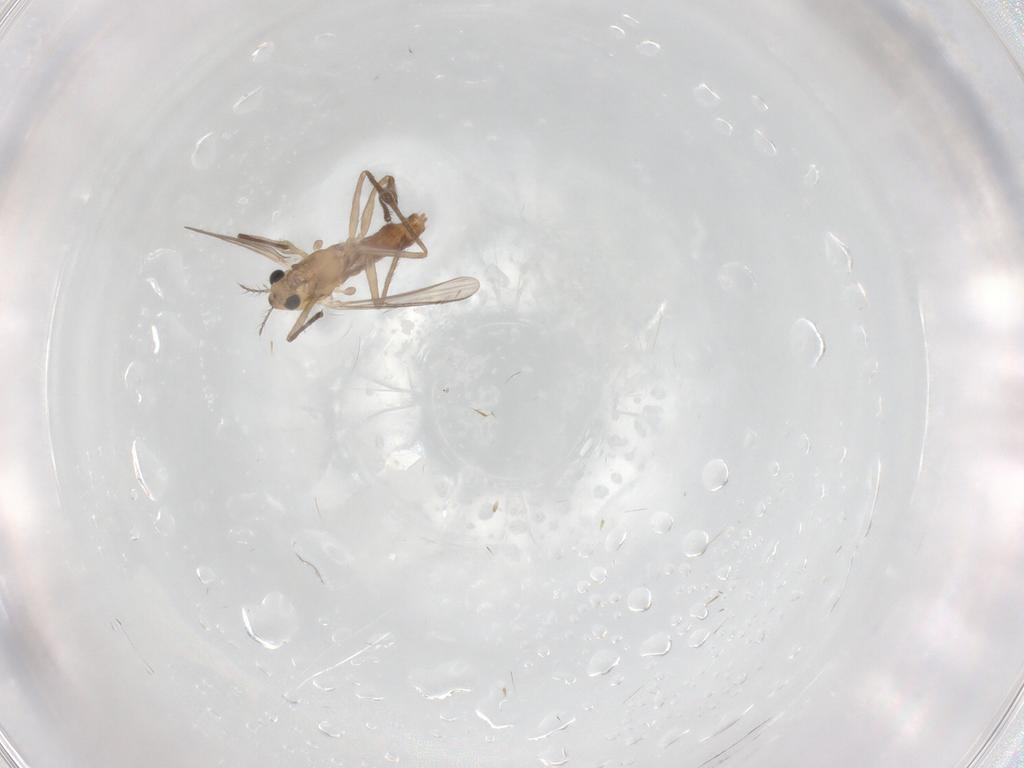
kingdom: Animalia
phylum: Arthropoda
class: Insecta
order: Diptera
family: Chironomidae
